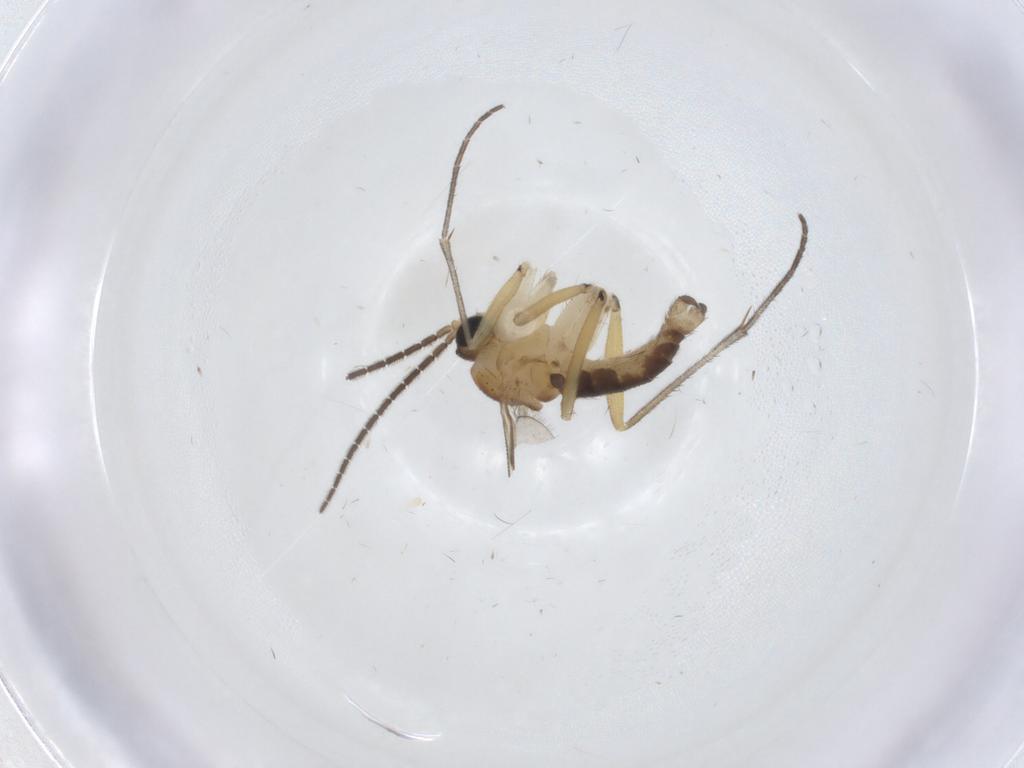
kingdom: Animalia
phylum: Arthropoda
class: Insecta
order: Diptera
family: Sciaridae
